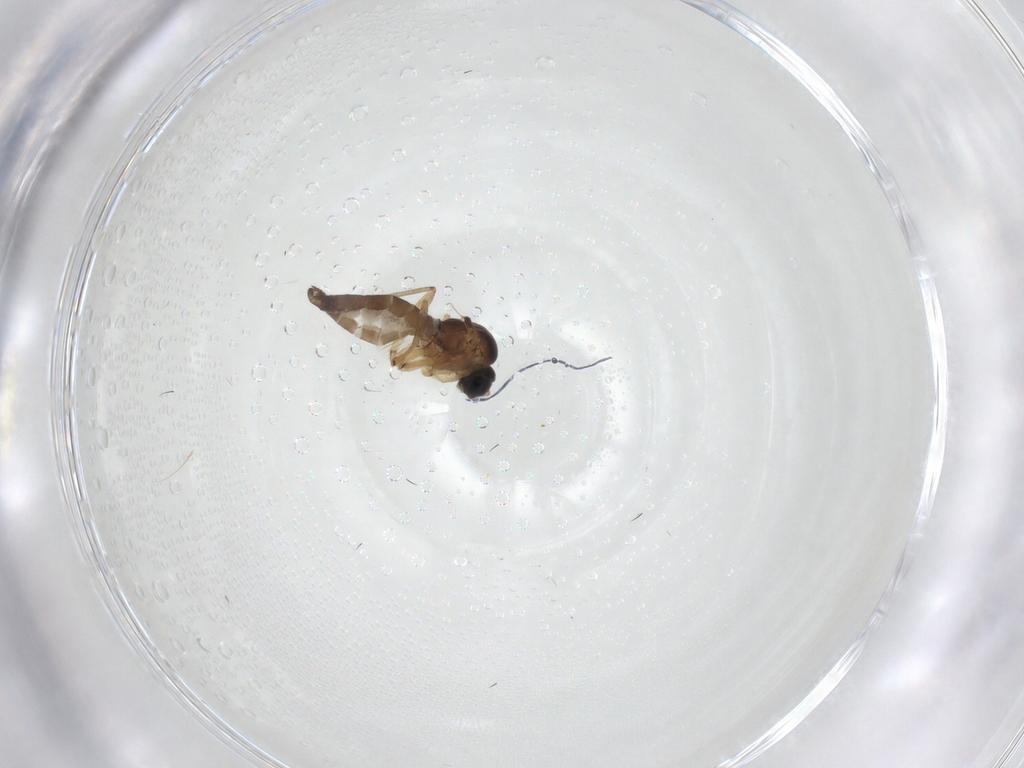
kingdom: Animalia
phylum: Arthropoda
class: Insecta
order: Diptera
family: Sciaridae
